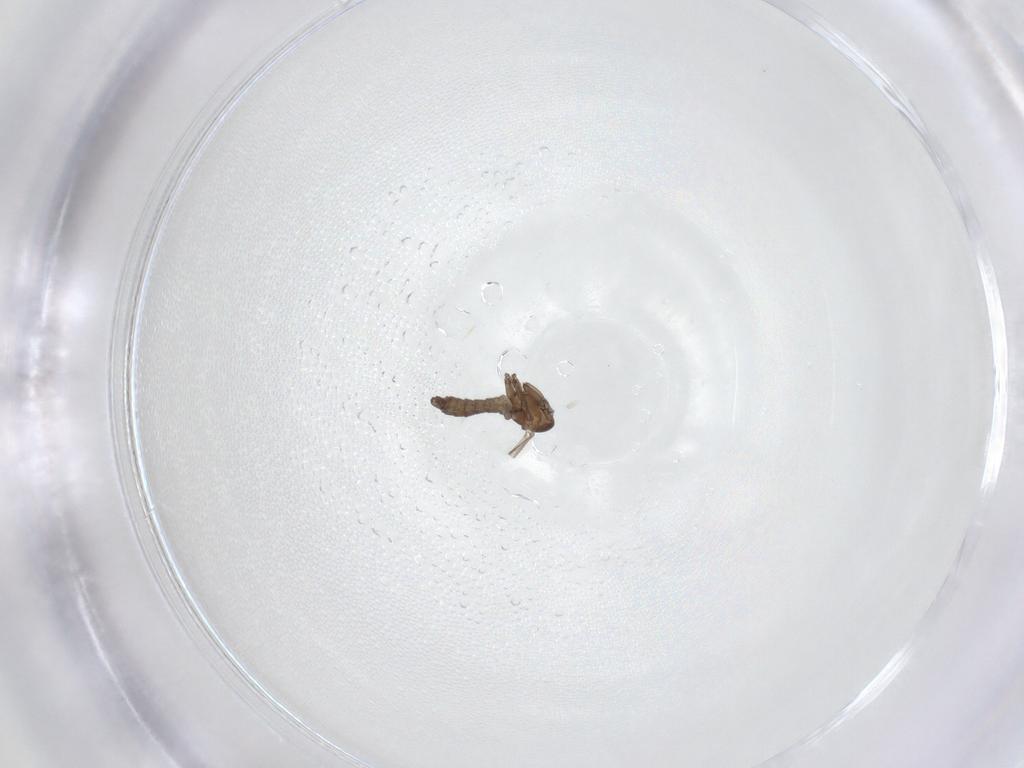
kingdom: Animalia
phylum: Arthropoda
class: Insecta
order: Diptera
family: Sciaridae
